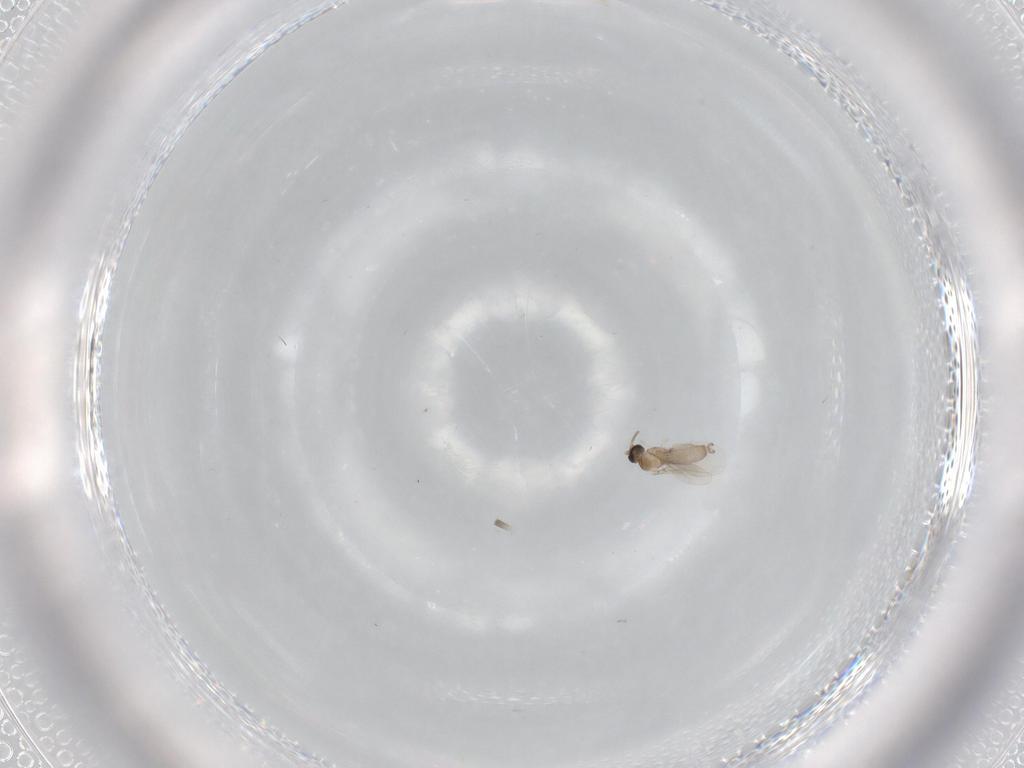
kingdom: Animalia
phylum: Arthropoda
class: Insecta
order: Diptera
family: Cecidomyiidae
